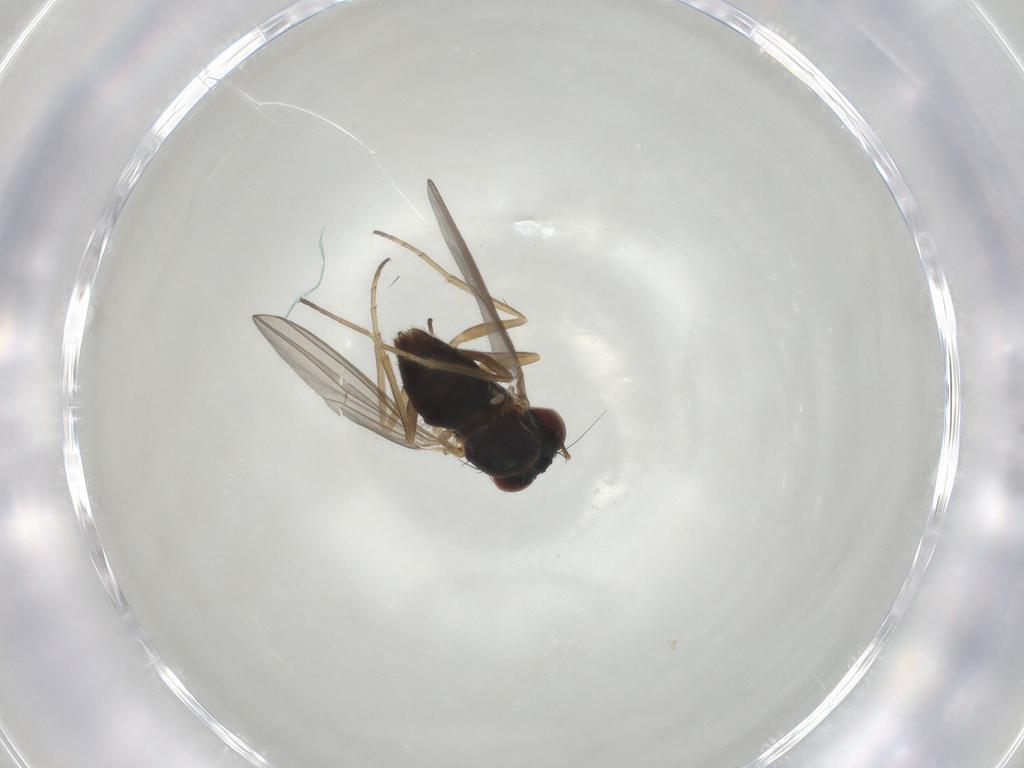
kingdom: Animalia
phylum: Arthropoda
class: Insecta
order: Diptera
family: Dolichopodidae
